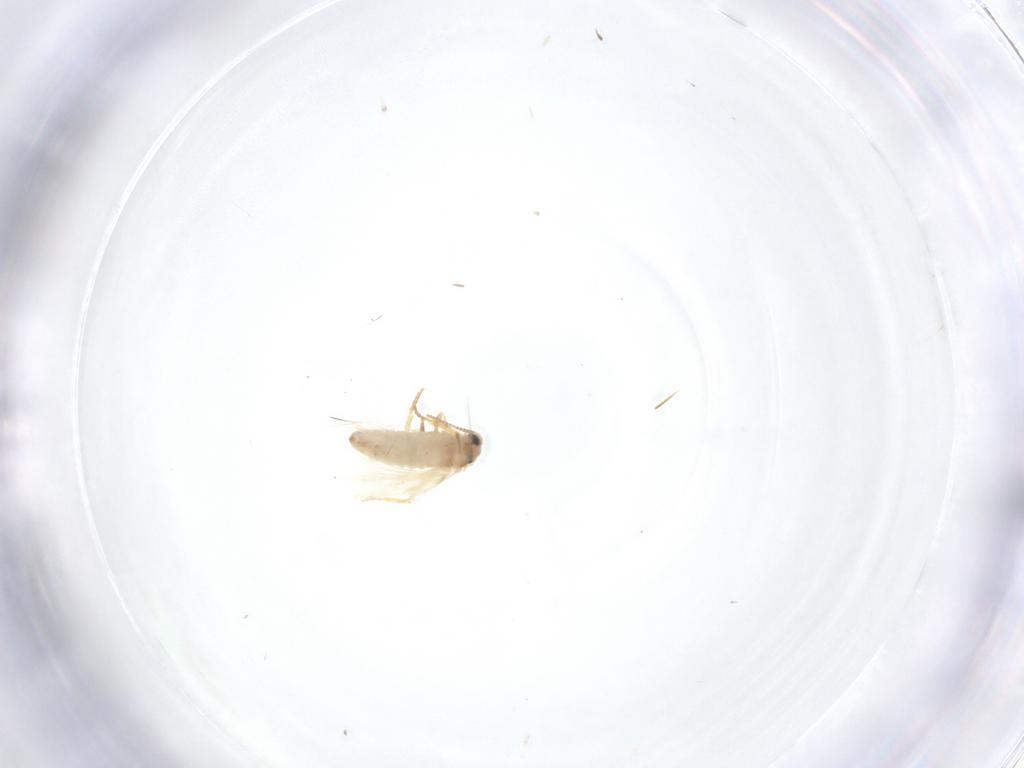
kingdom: Animalia
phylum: Arthropoda
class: Insecta
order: Lepidoptera
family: Crambidae
